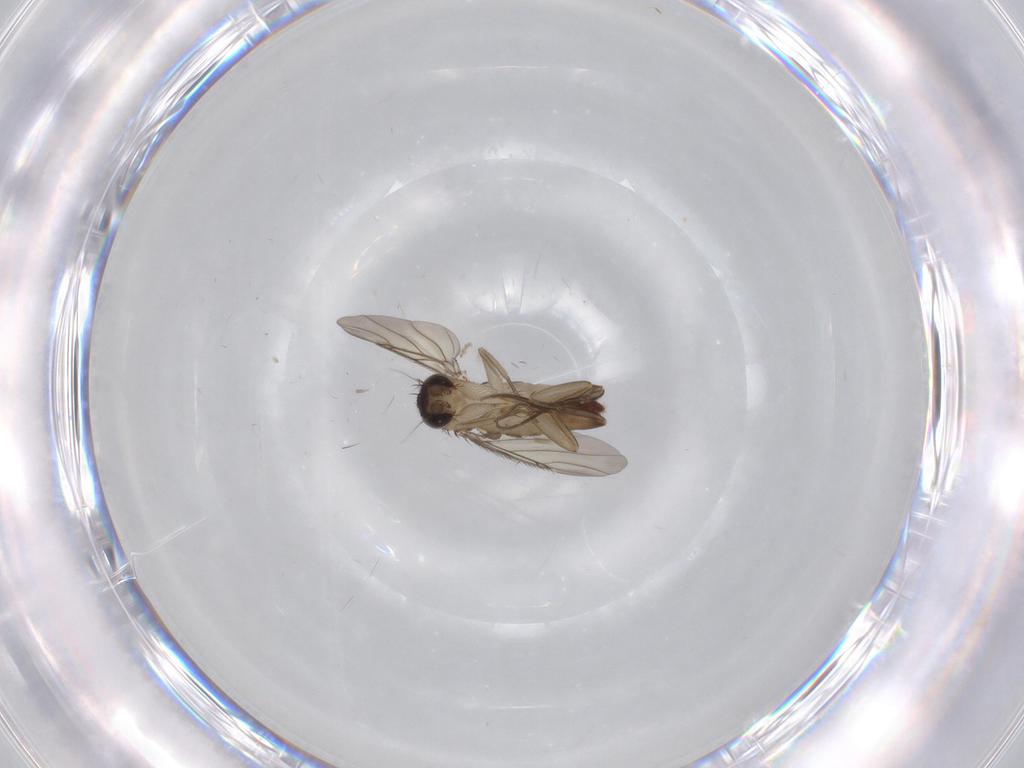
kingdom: Animalia
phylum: Arthropoda
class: Insecta
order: Diptera
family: Phoridae
